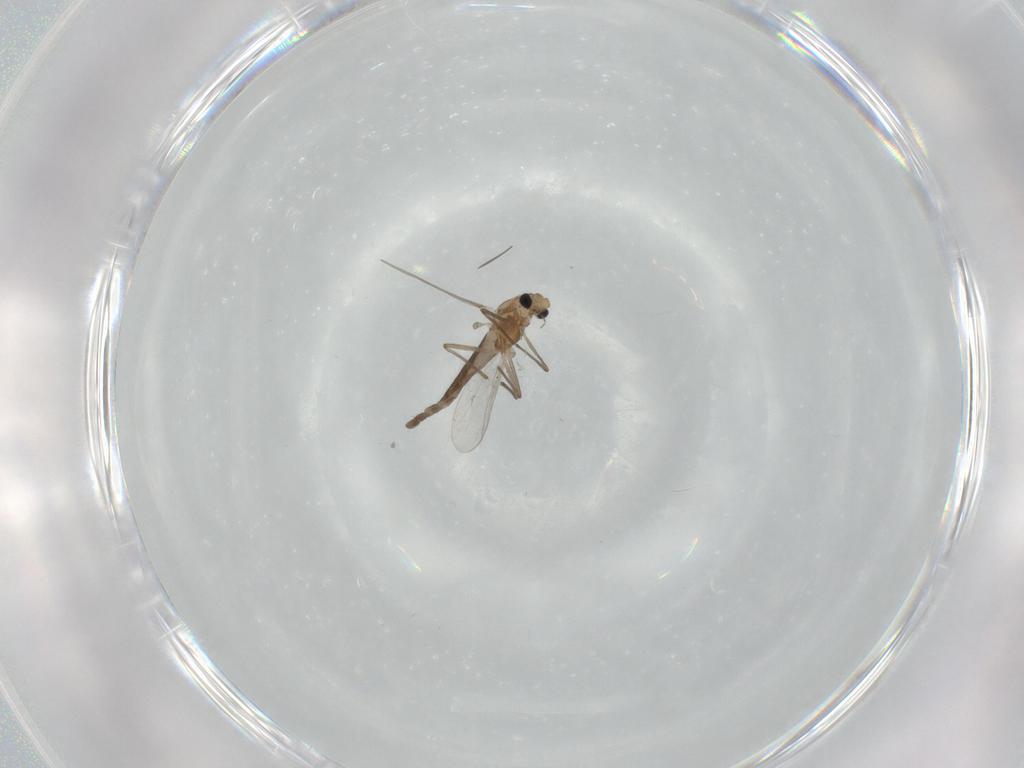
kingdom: Animalia
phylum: Arthropoda
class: Insecta
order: Diptera
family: Chironomidae
